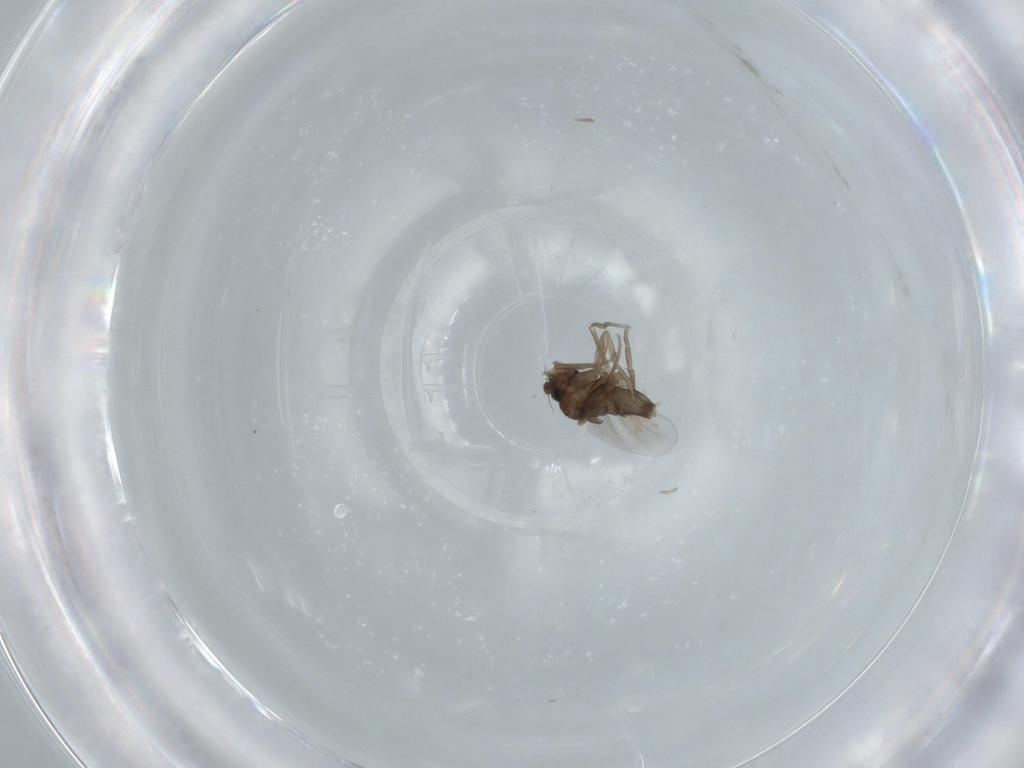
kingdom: Animalia
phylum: Arthropoda
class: Insecta
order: Diptera
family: Phoridae
